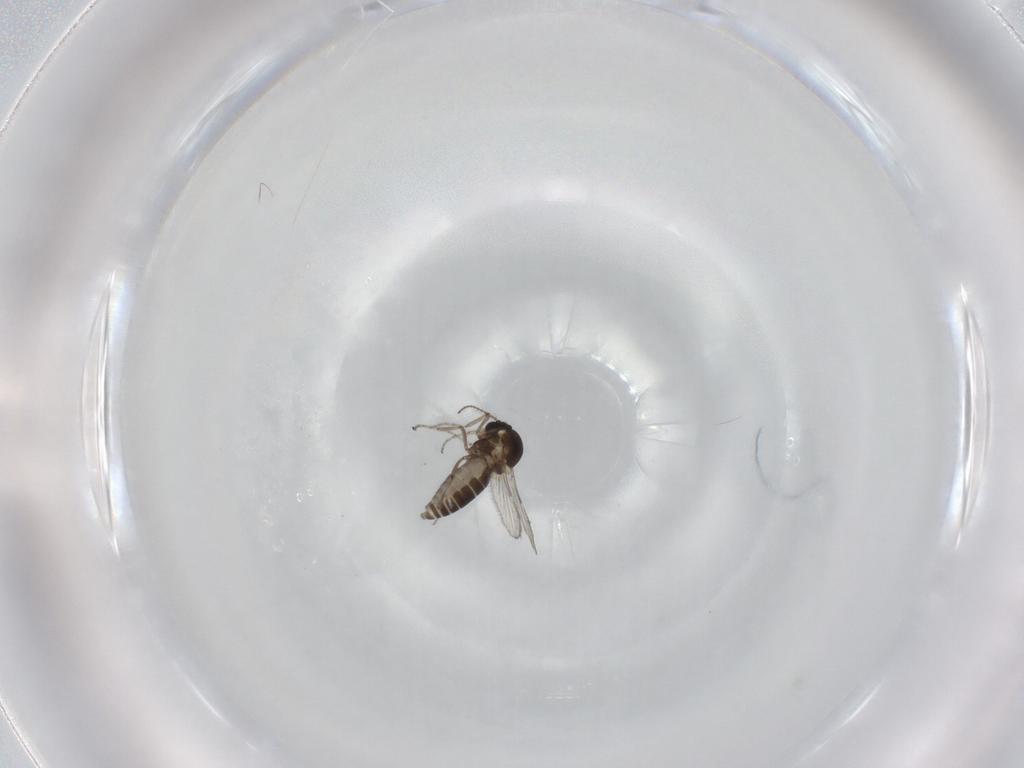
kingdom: Animalia
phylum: Arthropoda
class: Insecta
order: Diptera
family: Ceratopogonidae
